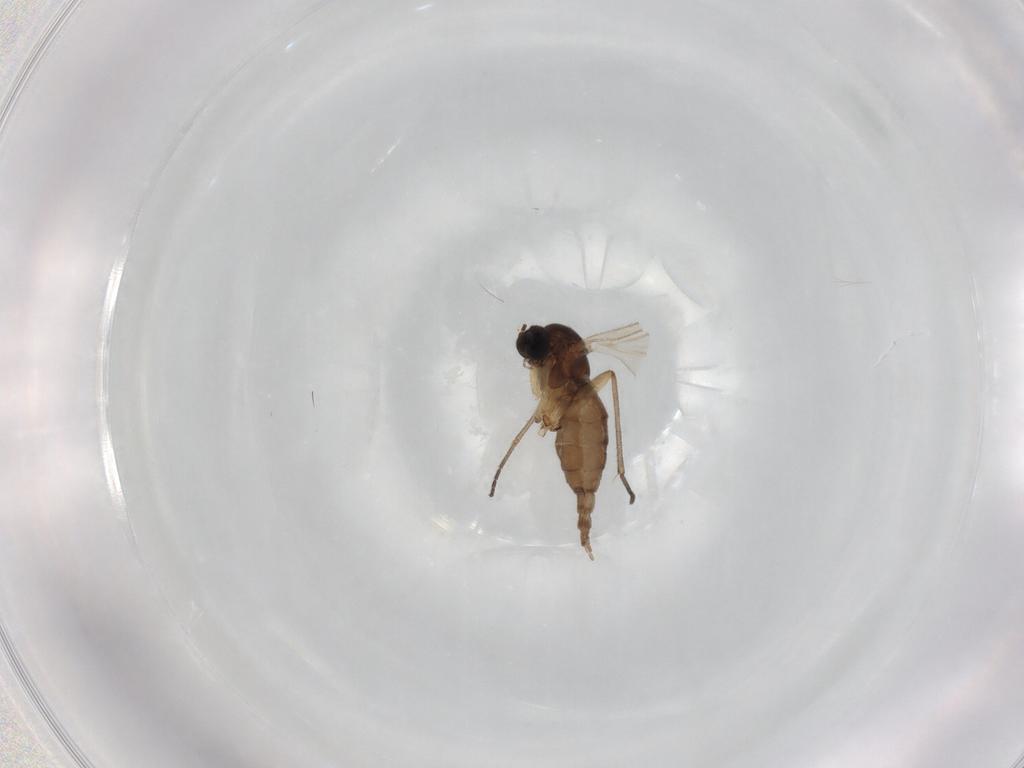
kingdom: Animalia
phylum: Arthropoda
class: Insecta
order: Diptera
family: Sciaridae
